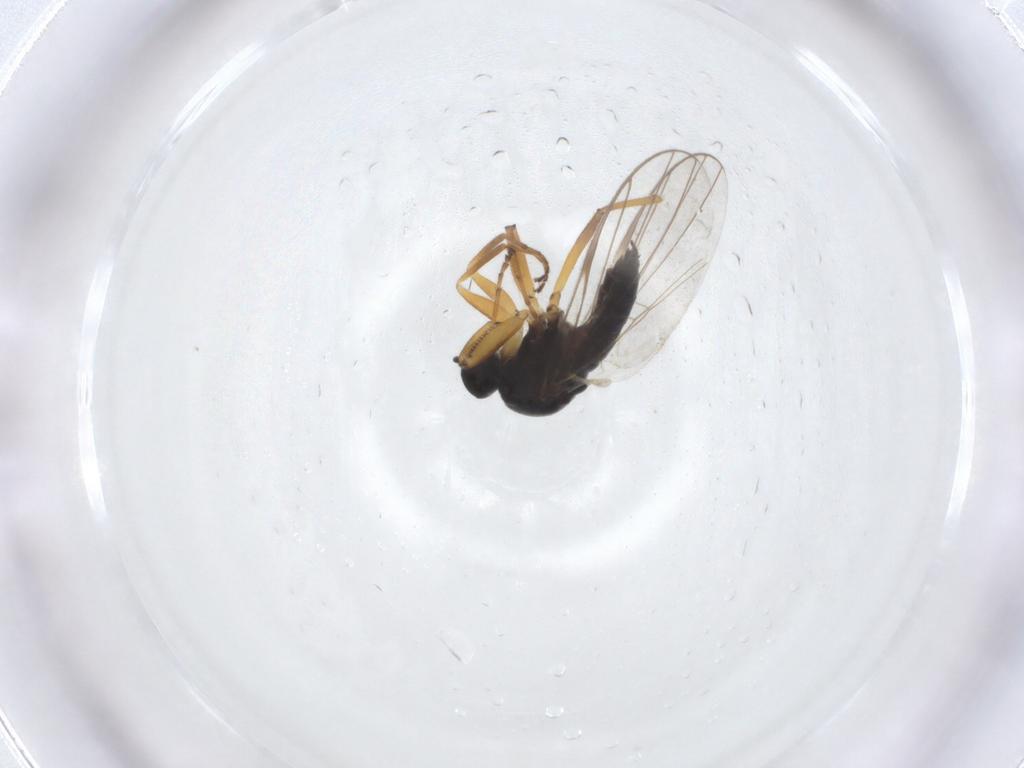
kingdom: Animalia
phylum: Arthropoda
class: Insecta
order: Diptera
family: Hybotidae
